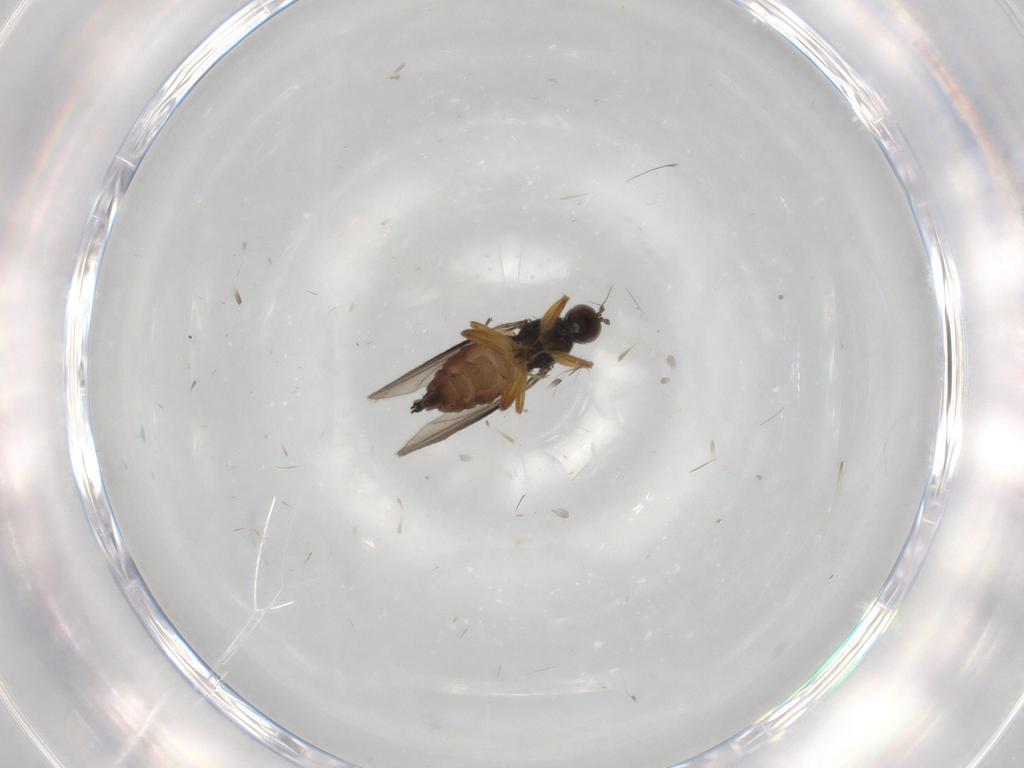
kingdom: Animalia
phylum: Arthropoda
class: Insecta
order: Diptera
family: Hybotidae
